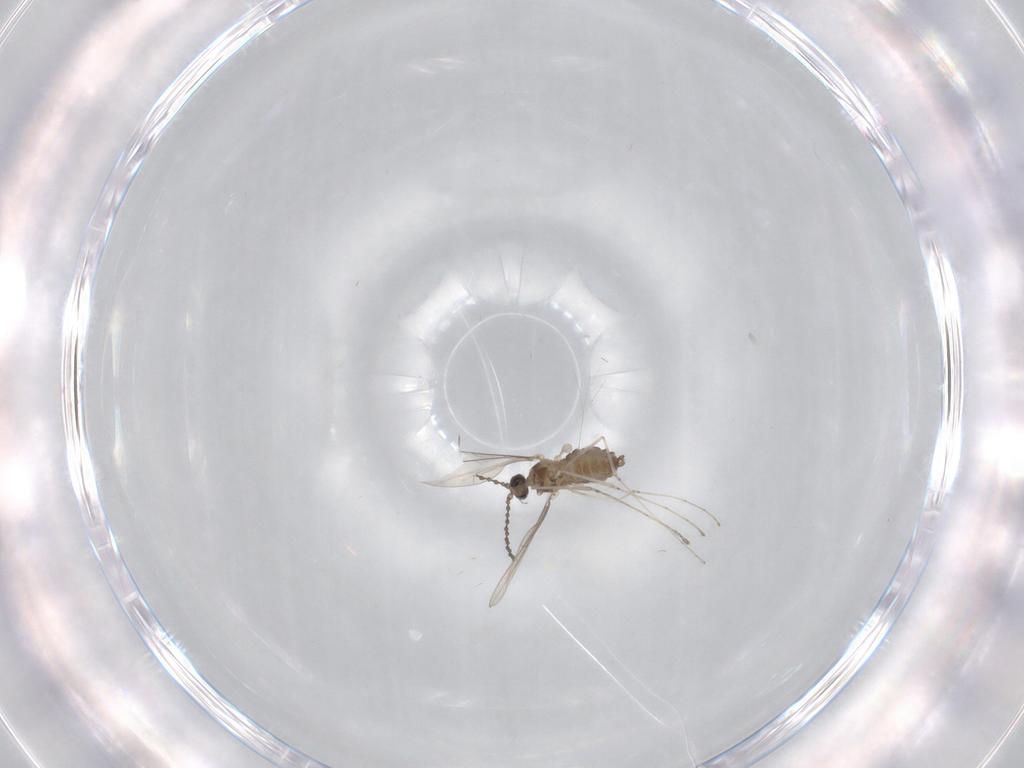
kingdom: Animalia
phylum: Arthropoda
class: Insecta
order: Diptera
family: Cecidomyiidae
